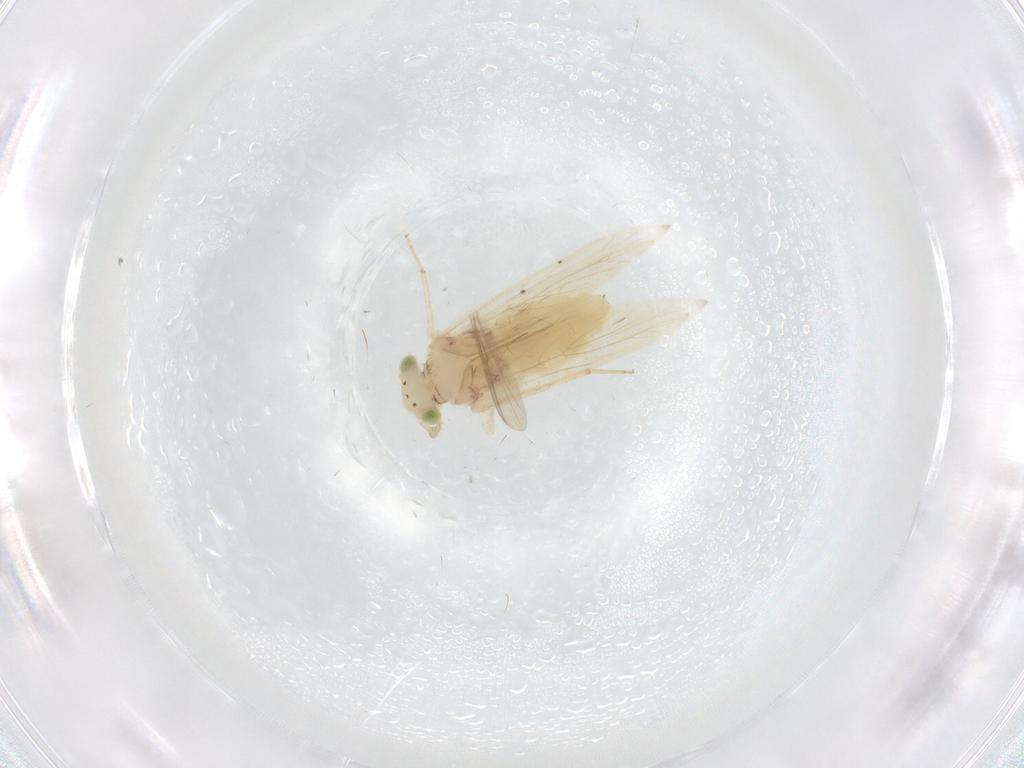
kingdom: Animalia
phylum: Arthropoda
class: Insecta
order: Psocodea
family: Lepidopsocidae
